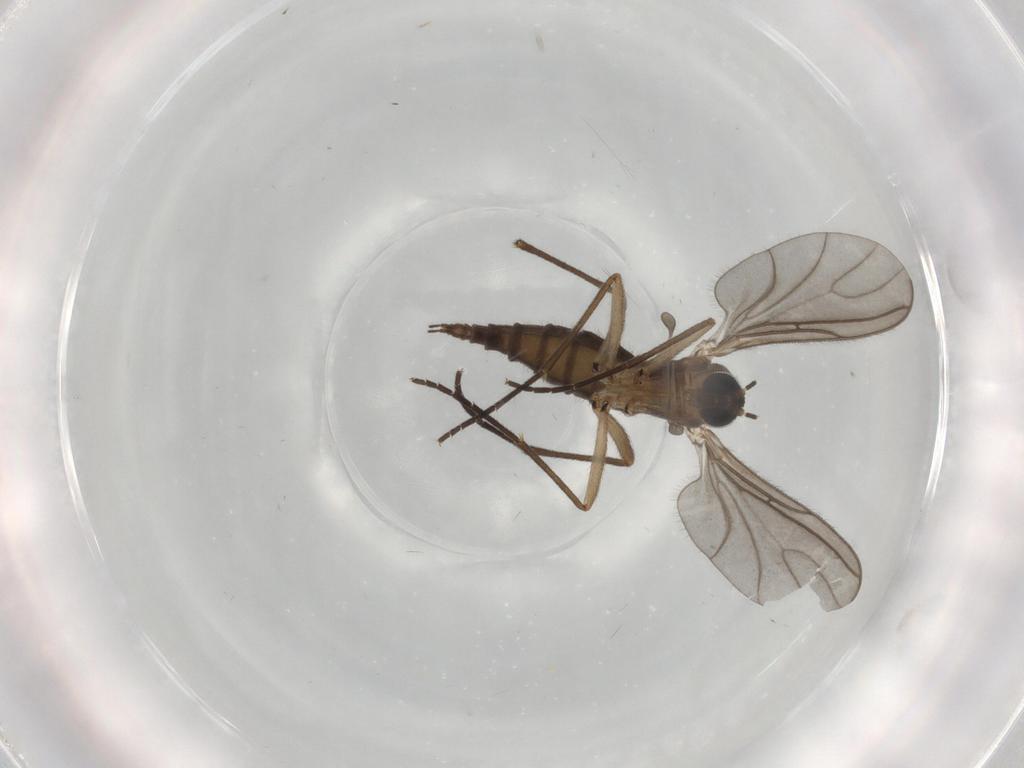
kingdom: Animalia
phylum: Arthropoda
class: Insecta
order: Diptera
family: Sciaridae
